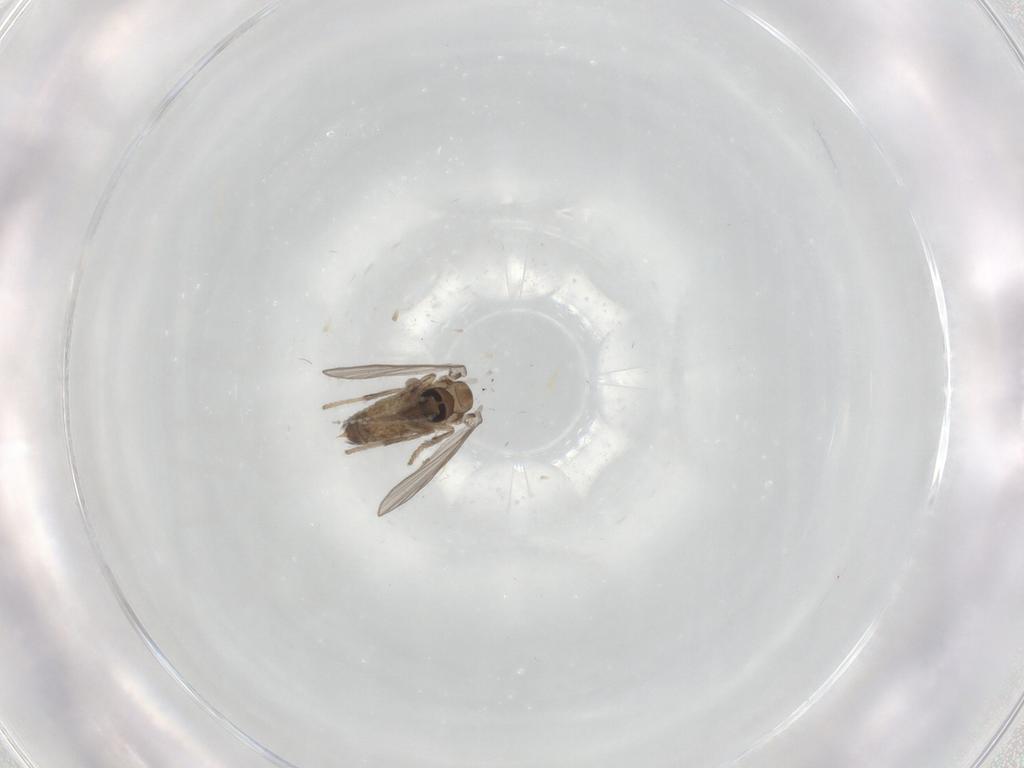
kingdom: Animalia
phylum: Arthropoda
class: Insecta
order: Diptera
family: Psychodidae
